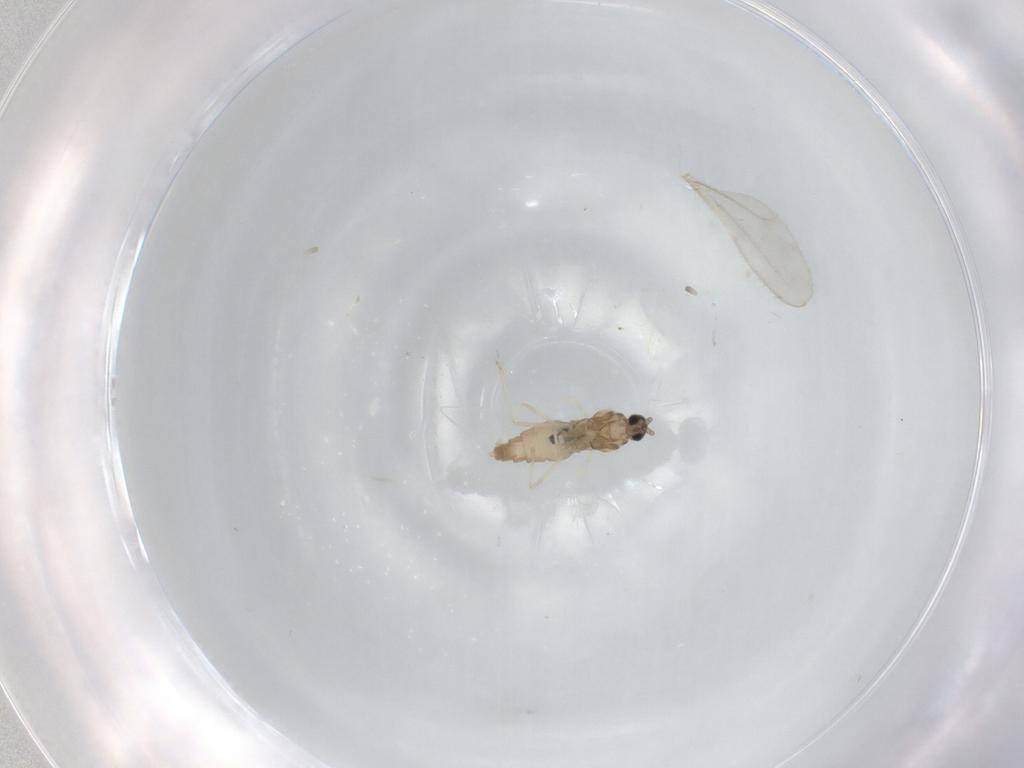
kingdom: Animalia
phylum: Arthropoda
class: Insecta
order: Diptera
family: Cecidomyiidae
